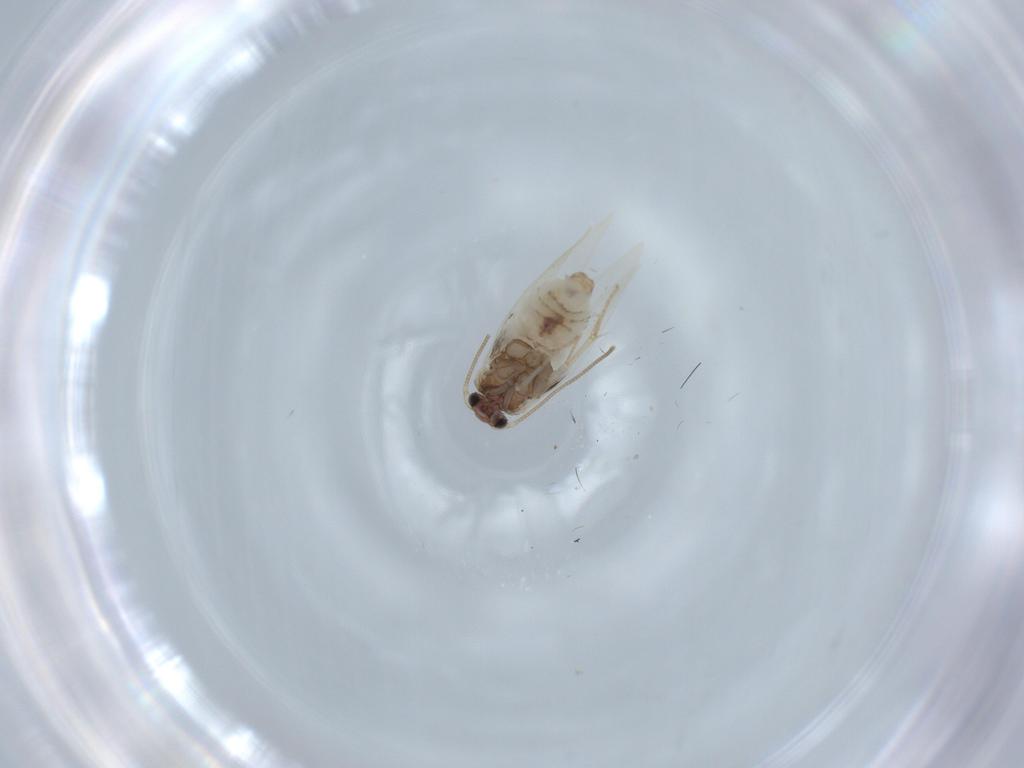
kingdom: Animalia
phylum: Arthropoda
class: Insecta
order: Lepidoptera
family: Nepticulidae
